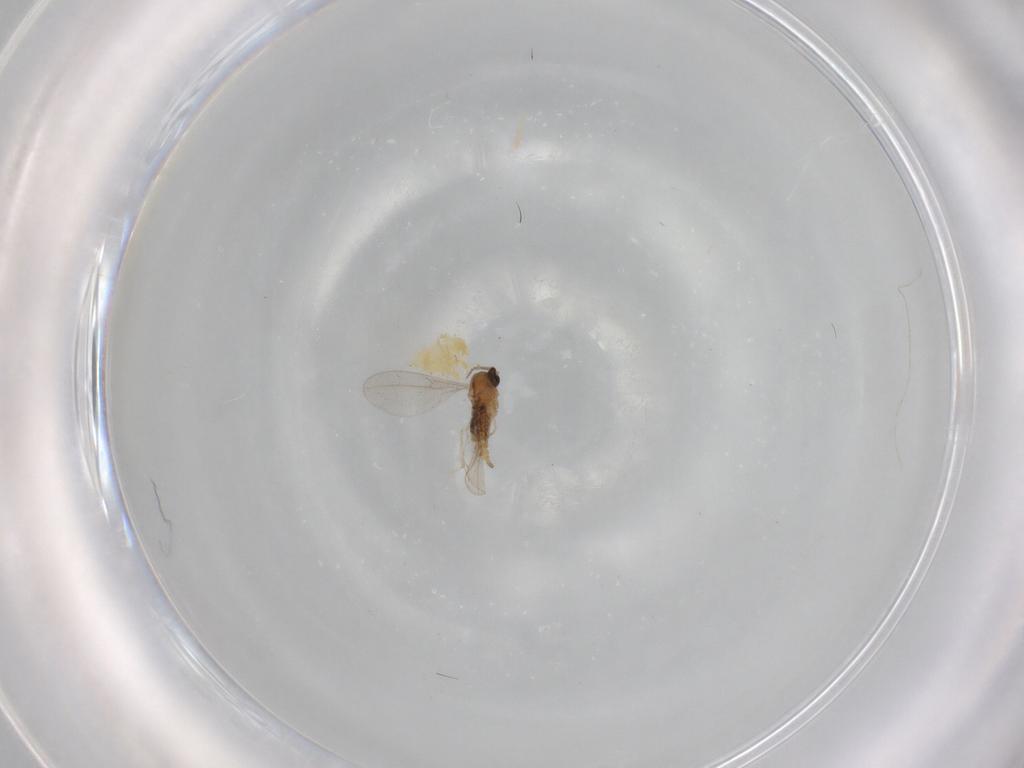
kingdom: Animalia
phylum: Arthropoda
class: Insecta
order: Diptera
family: Cecidomyiidae
